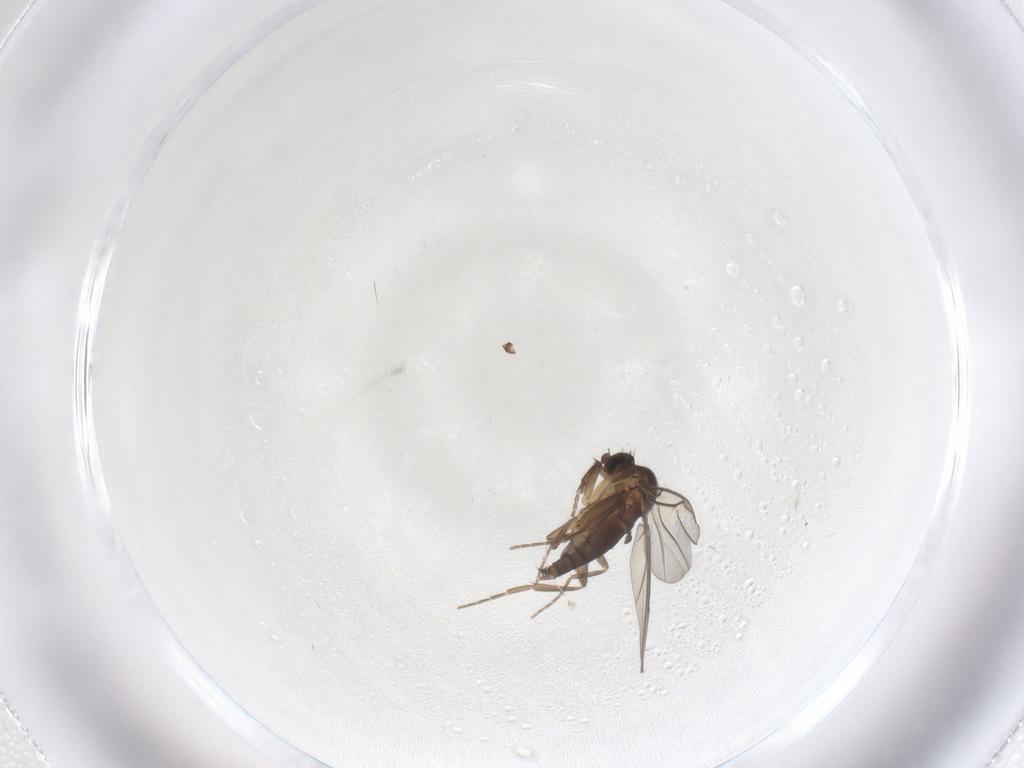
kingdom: Animalia
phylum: Arthropoda
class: Insecta
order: Diptera
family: Phoridae
